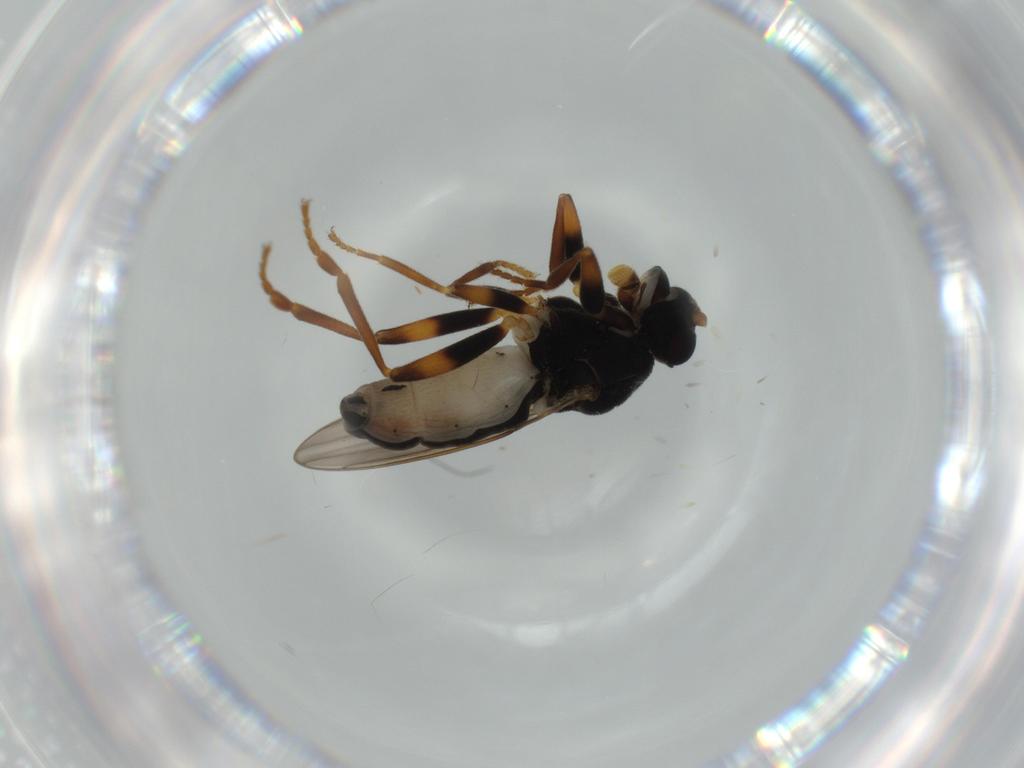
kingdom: Animalia
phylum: Arthropoda
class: Insecta
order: Diptera
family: Sphaeroceridae
